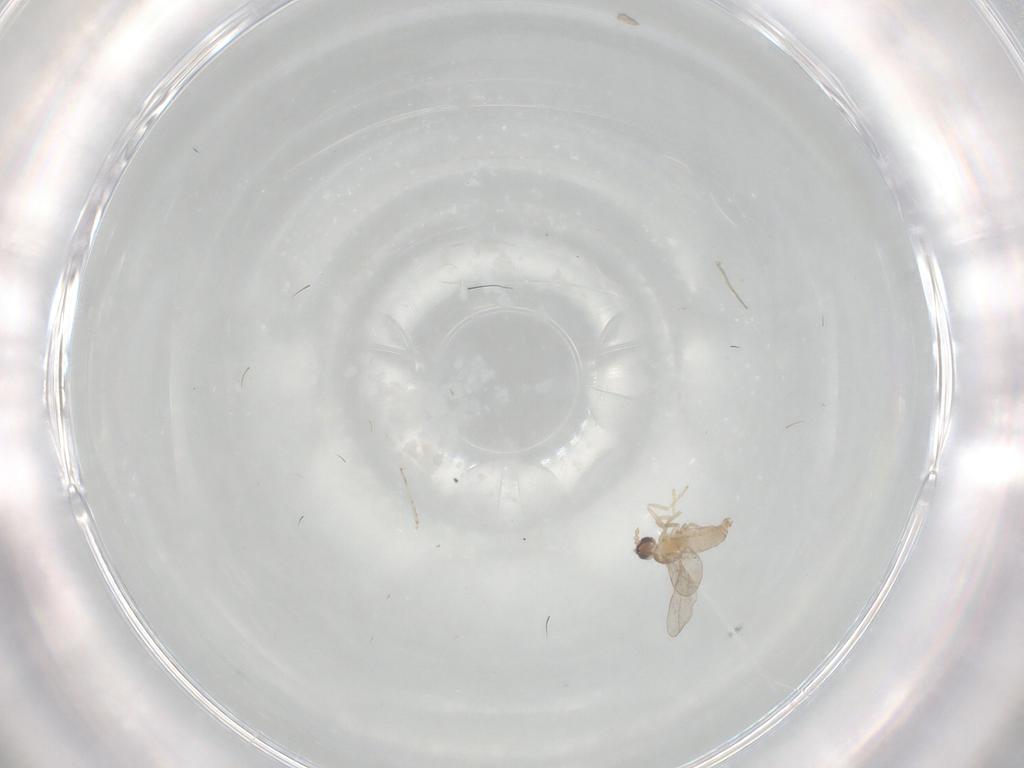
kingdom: Animalia
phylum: Arthropoda
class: Insecta
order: Diptera
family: Cecidomyiidae
